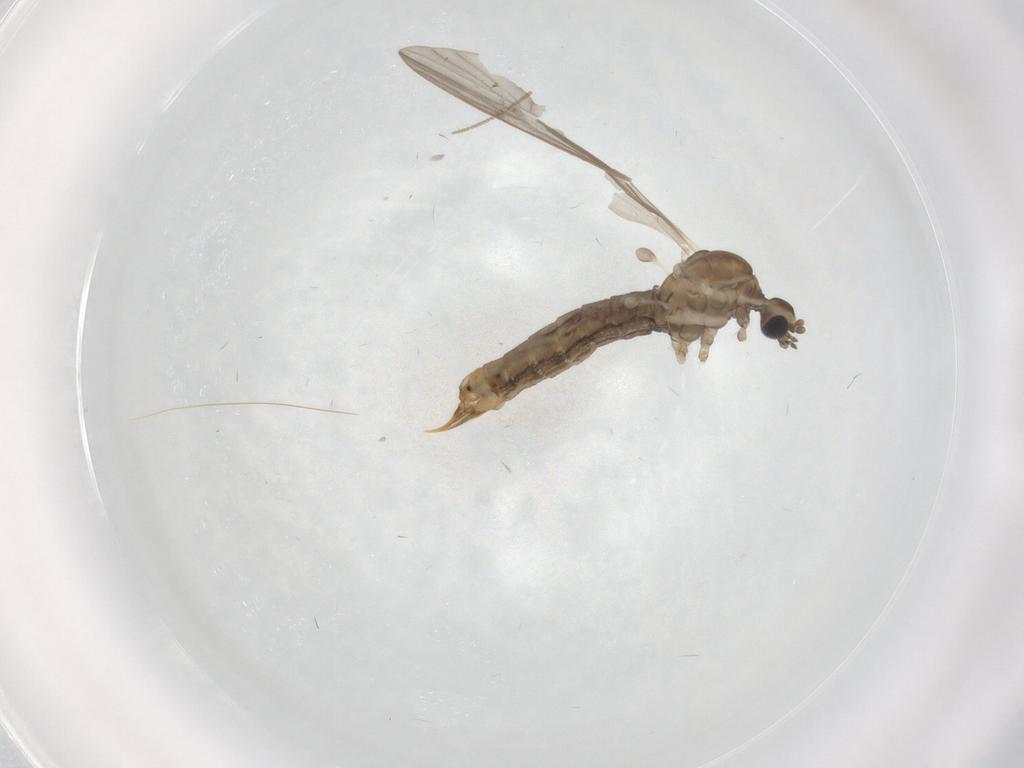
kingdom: Animalia
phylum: Arthropoda
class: Insecta
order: Diptera
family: Limoniidae
